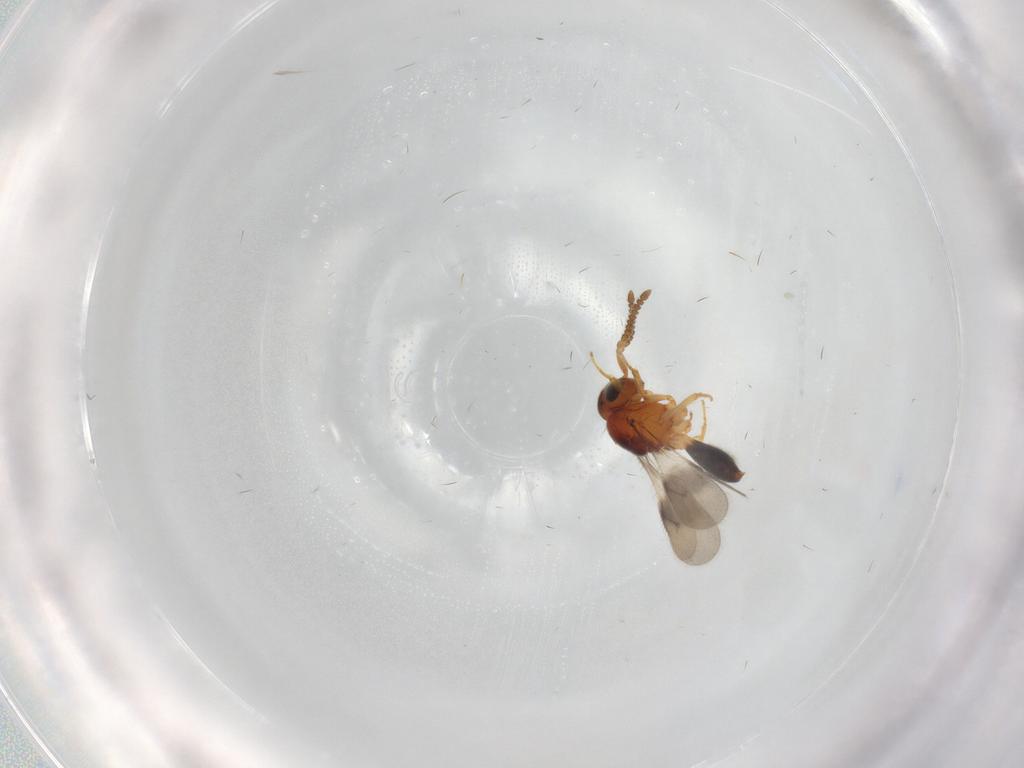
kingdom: Animalia
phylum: Arthropoda
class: Insecta
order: Hymenoptera
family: Scelionidae
